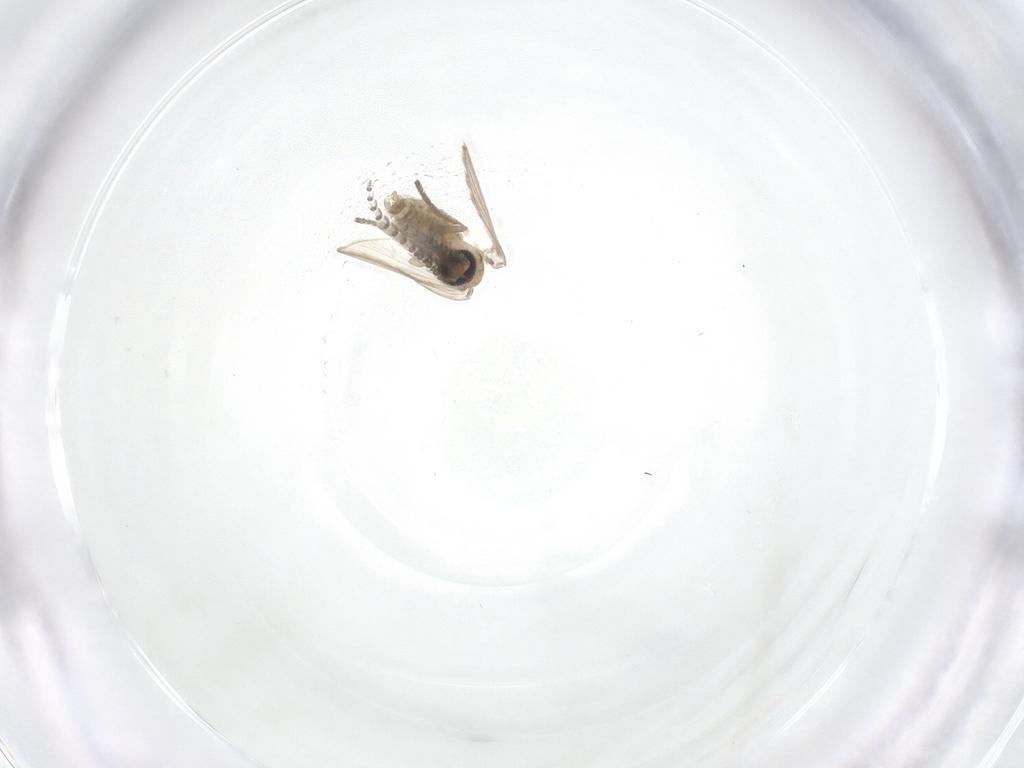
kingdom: Animalia
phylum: Arthropoda
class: Insecta
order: Diptera
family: Psychodidae
